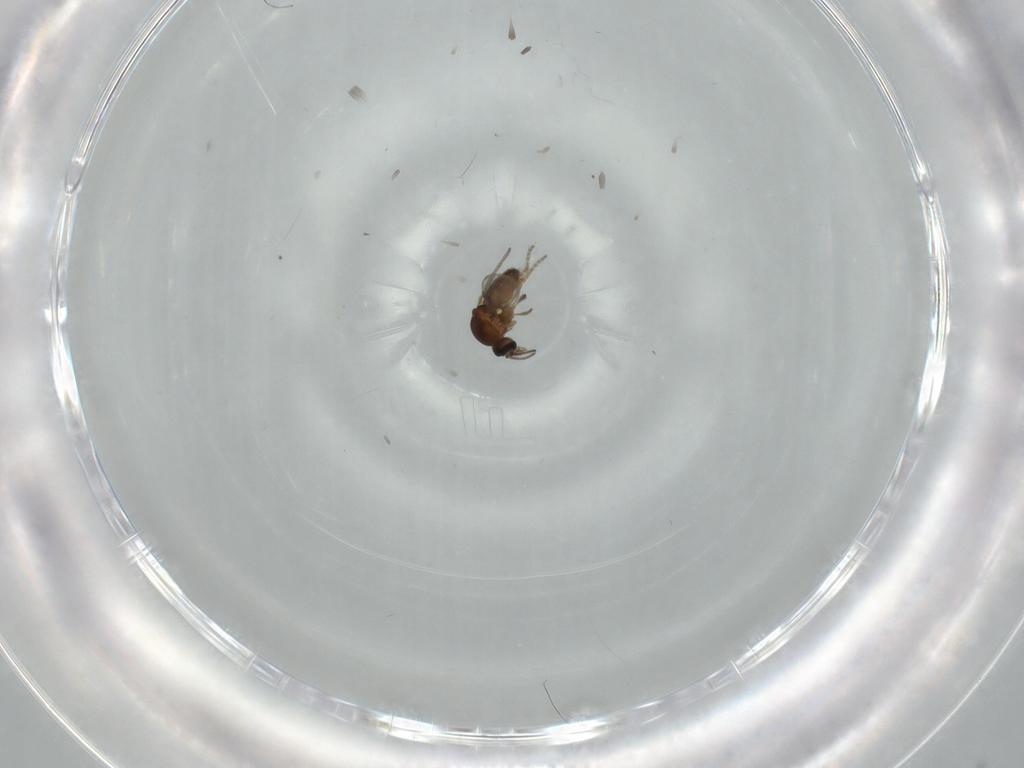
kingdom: Animalia
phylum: Arthropoda
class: Insecta
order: Diptera
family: Ceratopogonidae
